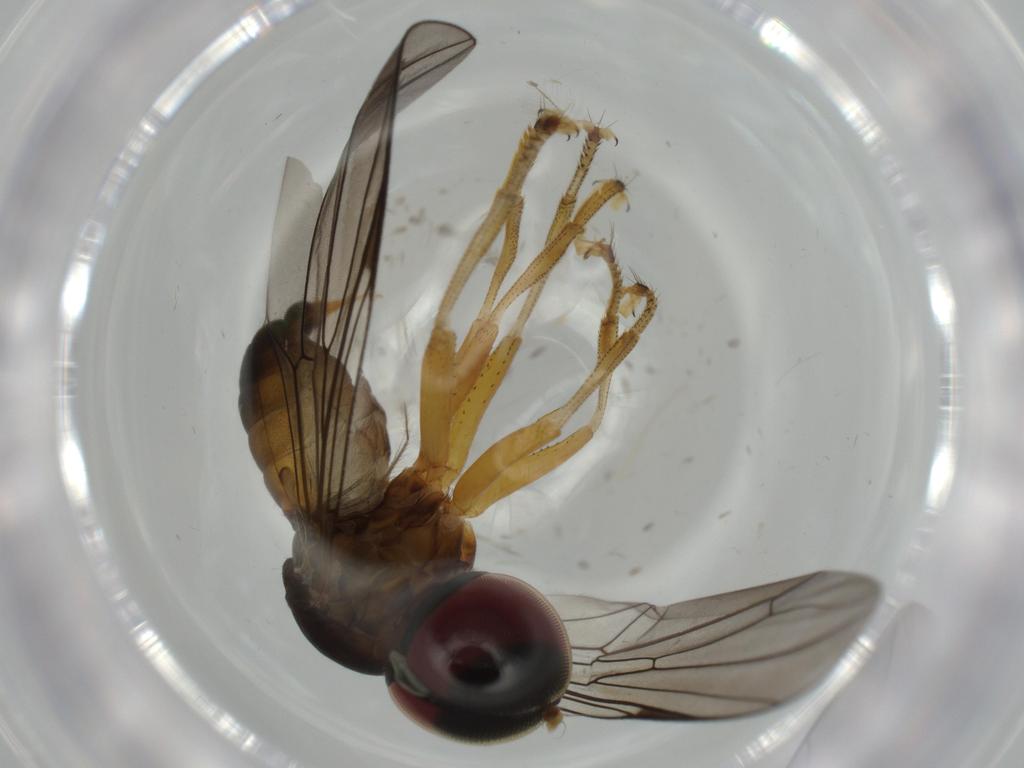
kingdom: Animalia
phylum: Arthropoda
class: Insecta
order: Diptera
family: Pipunculidae
